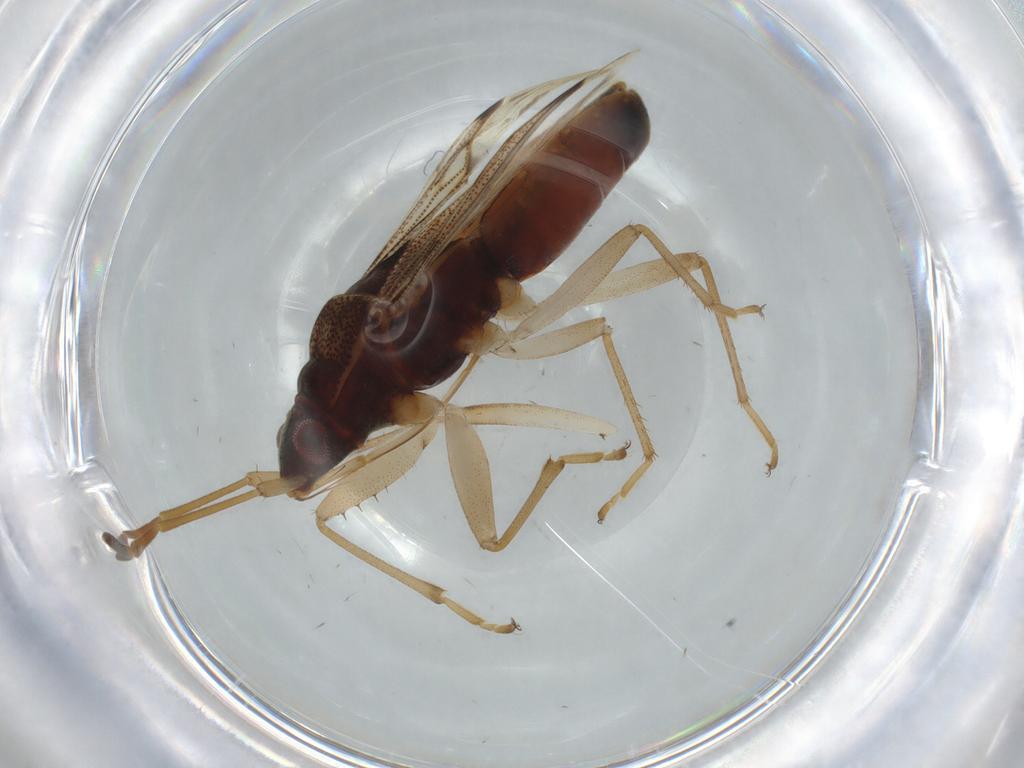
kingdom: Animalia
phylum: Arthropoda
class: Insecta
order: Hemiptera
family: Rhyparochromidae
